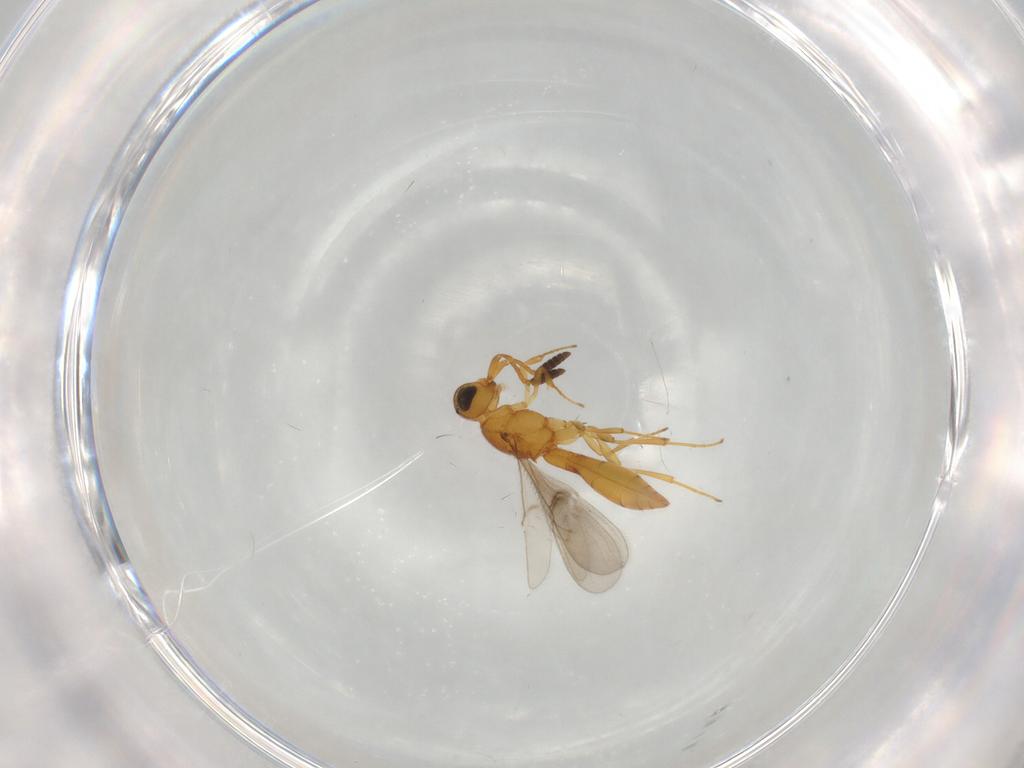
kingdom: Animalia
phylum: Arthropoda
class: Insecta
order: Hymenoptera
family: Scelionidae
